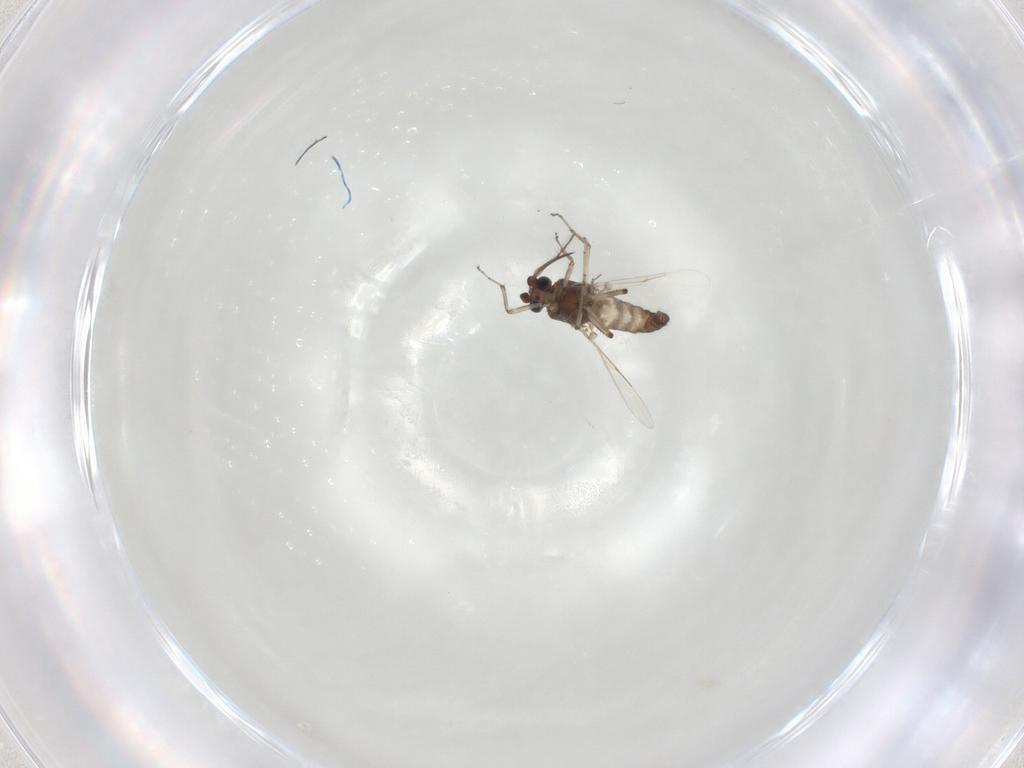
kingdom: Animalia
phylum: Arthropoda
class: Insecta
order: Diptera
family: Ceratopogonidae
